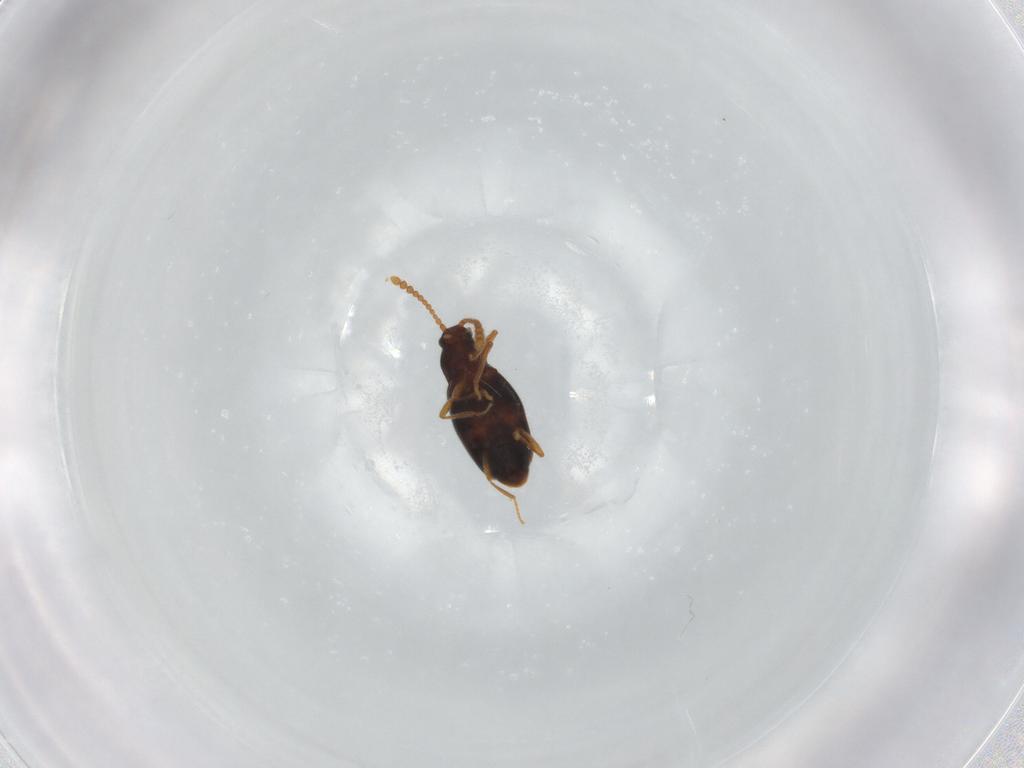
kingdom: Animalia
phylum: Arthropoda
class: Insecta
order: Coleoptera
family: Staphylinidae
